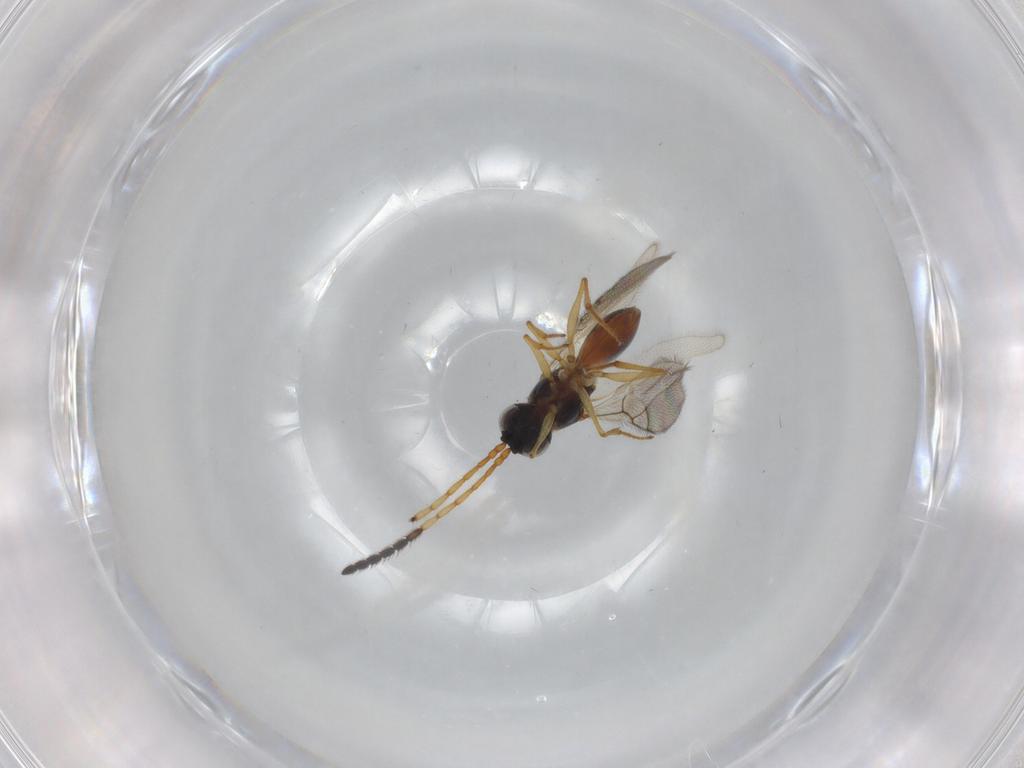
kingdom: Animalia
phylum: Arthropoda
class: Insecta
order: Hymenoptera
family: Figitidae
